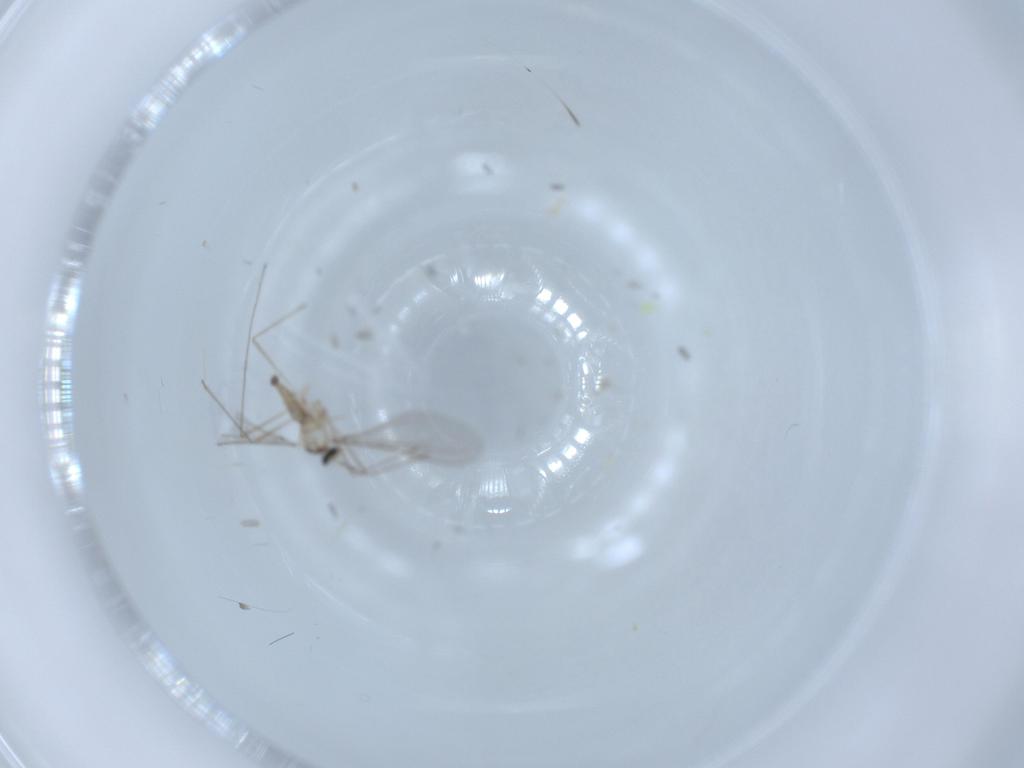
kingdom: Animalia
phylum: Arthropoda
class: Insecta
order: Diptera
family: Cecidomyiidae
